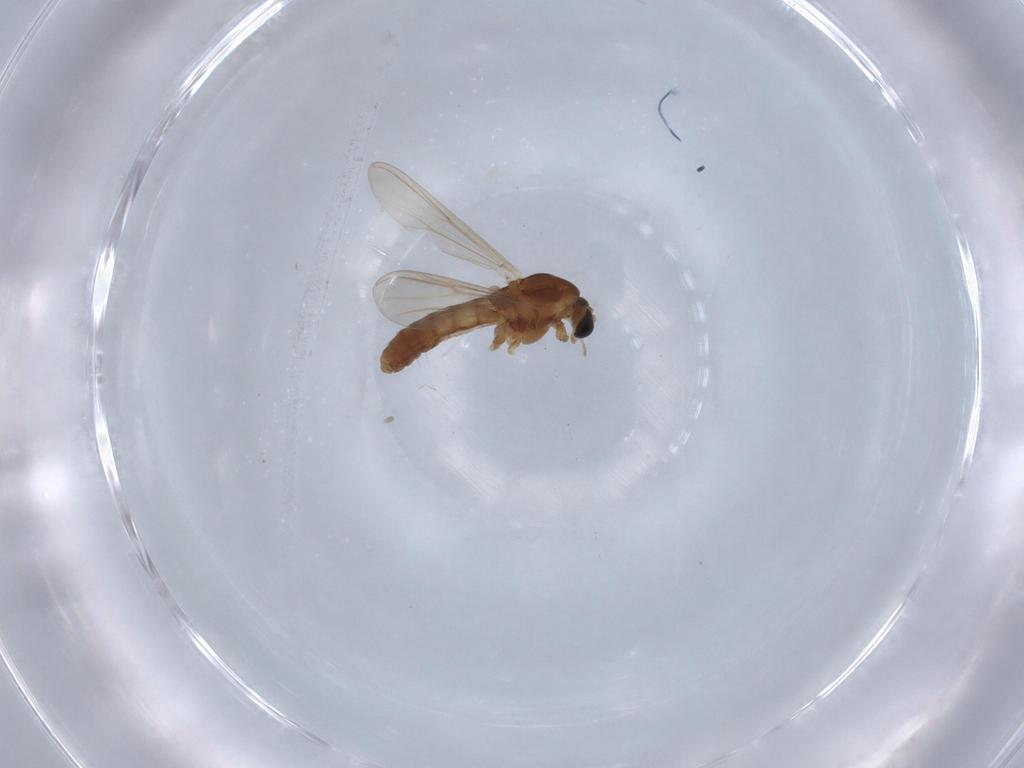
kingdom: Animalia
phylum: Arthropoda
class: Insecta
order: Diptera
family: Chironomidae
